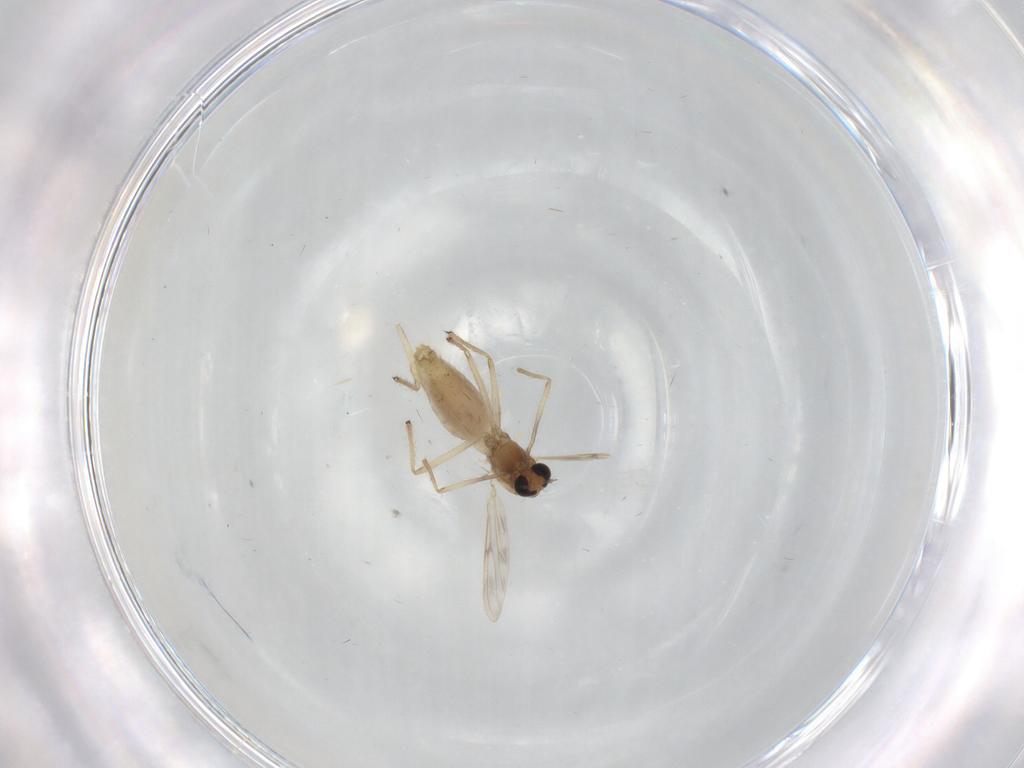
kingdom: Animalia
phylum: Arthropoda
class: Insecta
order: Diptera
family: Chironomidae
